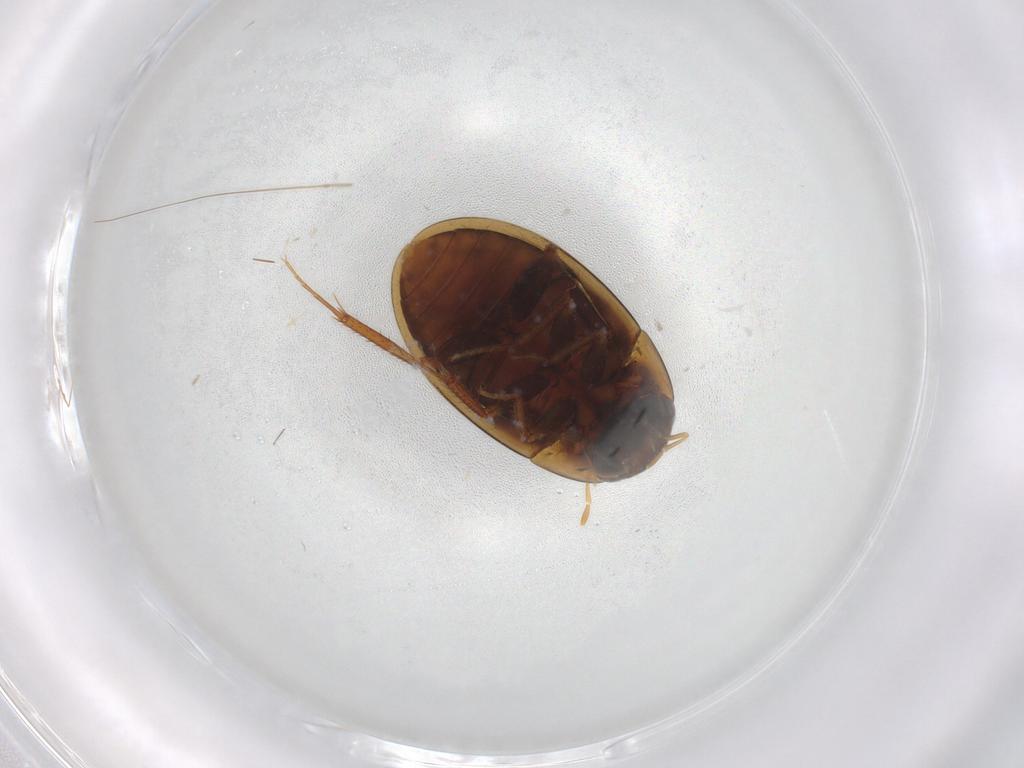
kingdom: Animalia
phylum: Arthropoda
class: Insecta
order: Coleoptera
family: Hydrophilidae
